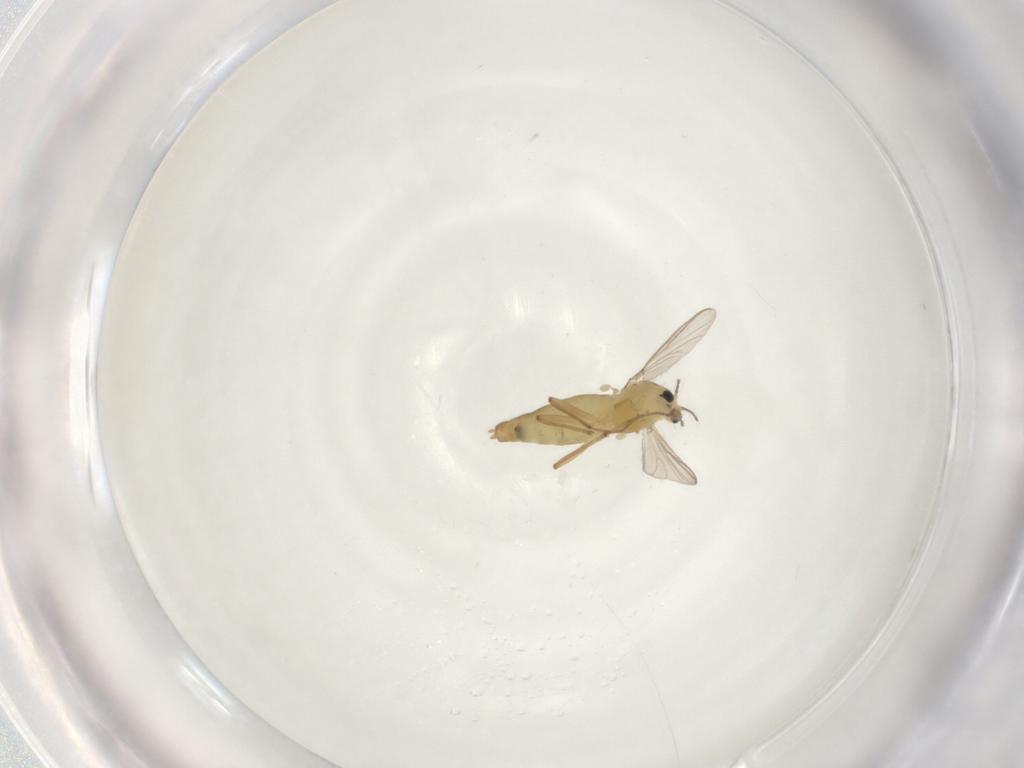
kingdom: Animalia
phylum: Arthropoda
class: Insecta
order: Diptera
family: Chironomidae
